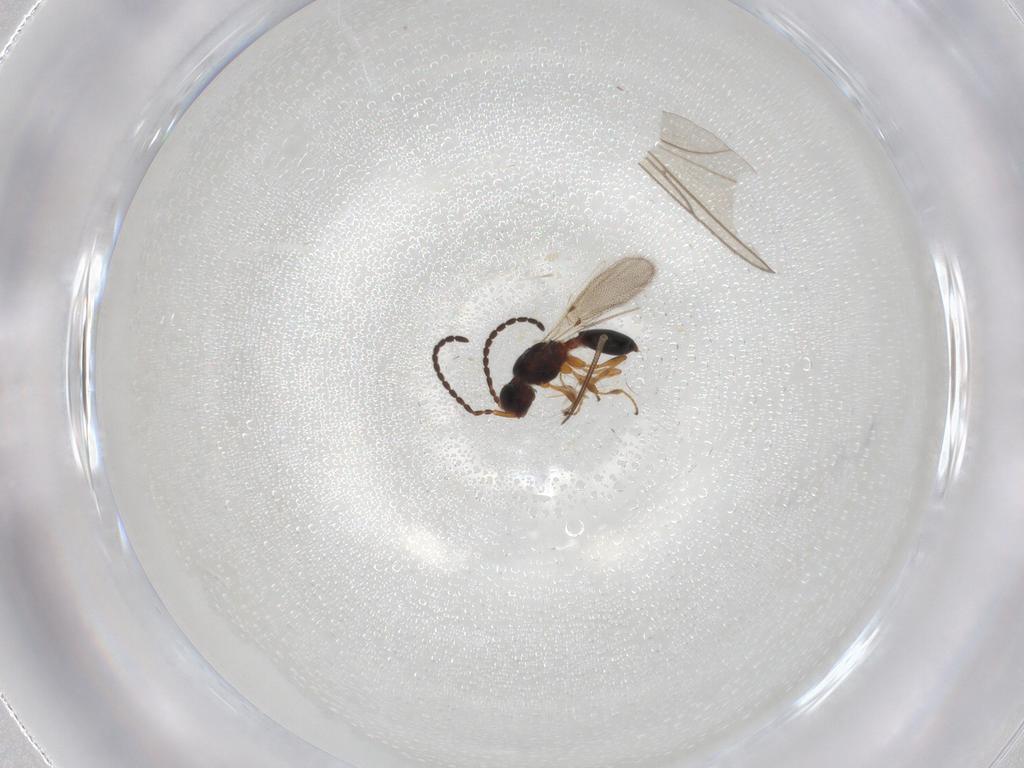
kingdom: Animalia
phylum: Arthropoda
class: Insecta
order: Hymenoptera
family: Diapriidae
